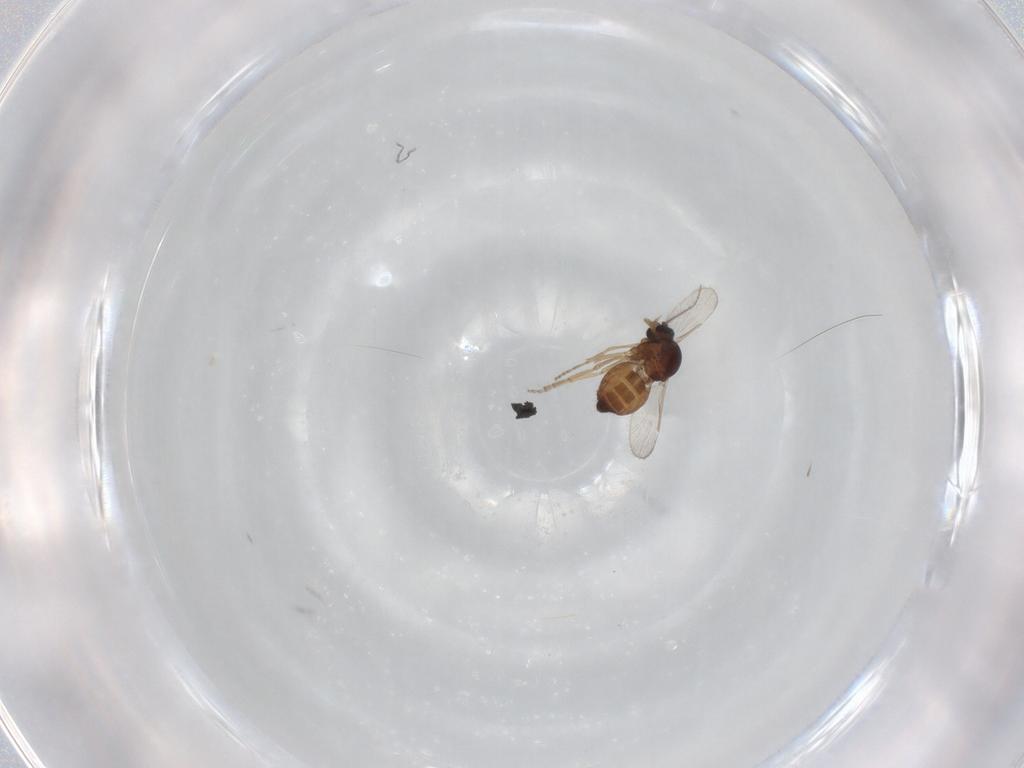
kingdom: Animalia
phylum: Arthropoda
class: Insecta
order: Diptera
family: Ceratopogonidae
